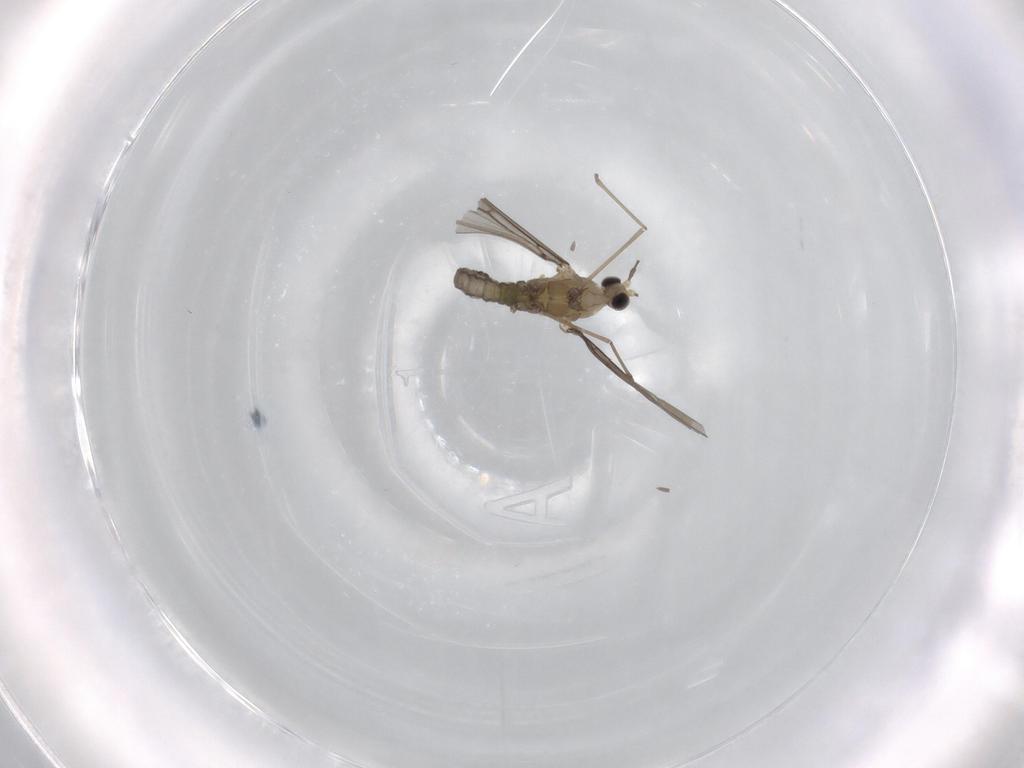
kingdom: Animalia
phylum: Arthropoda
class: Insecta
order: Diptera
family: Cecidomyiidae
